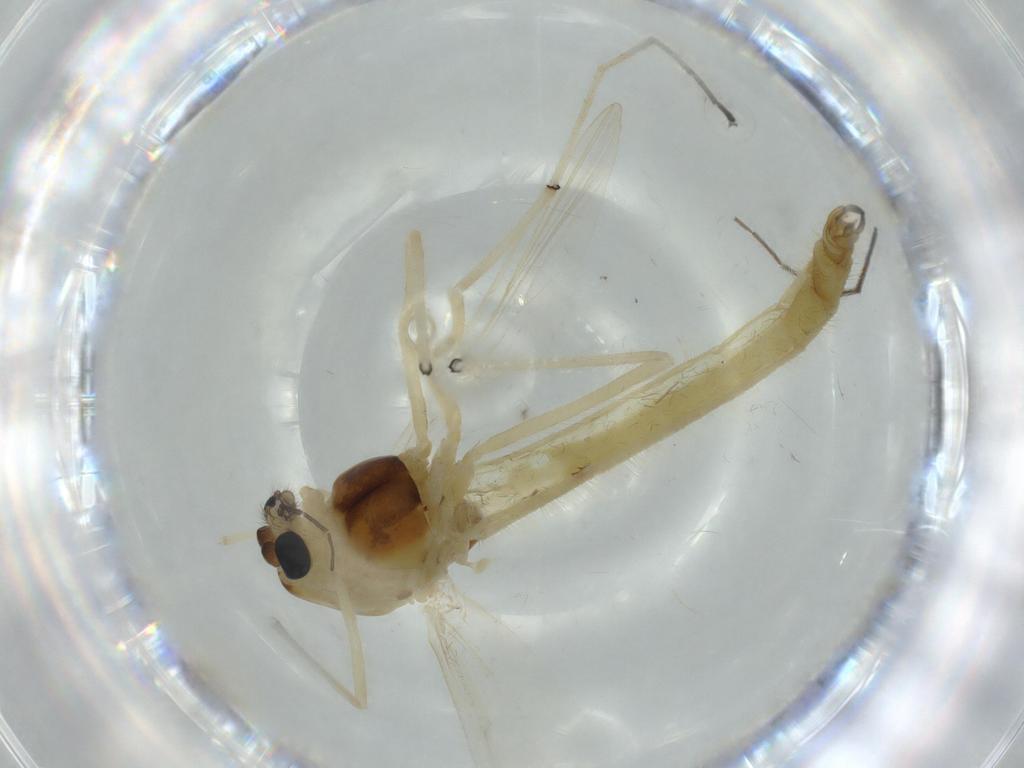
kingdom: Animalia
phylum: Arthropoda
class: Insecta
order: Diptera
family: Chironomidae
